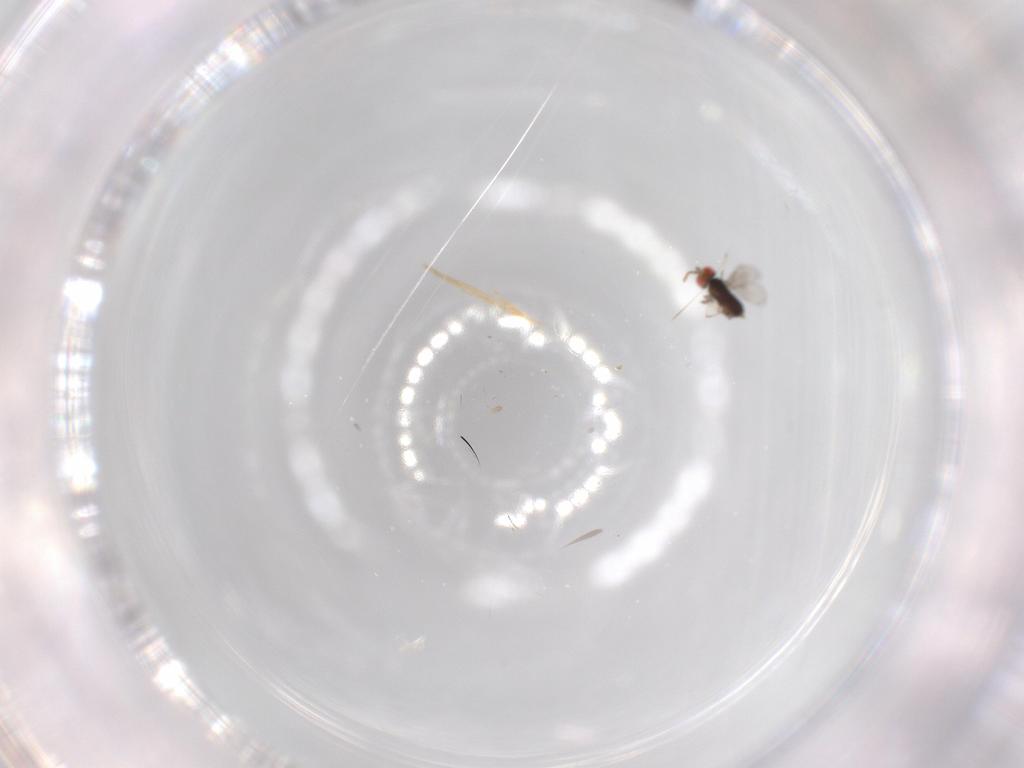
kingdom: Animalia
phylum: Arthropoda
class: Insecta
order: Hymenoptera
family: Azotidae
